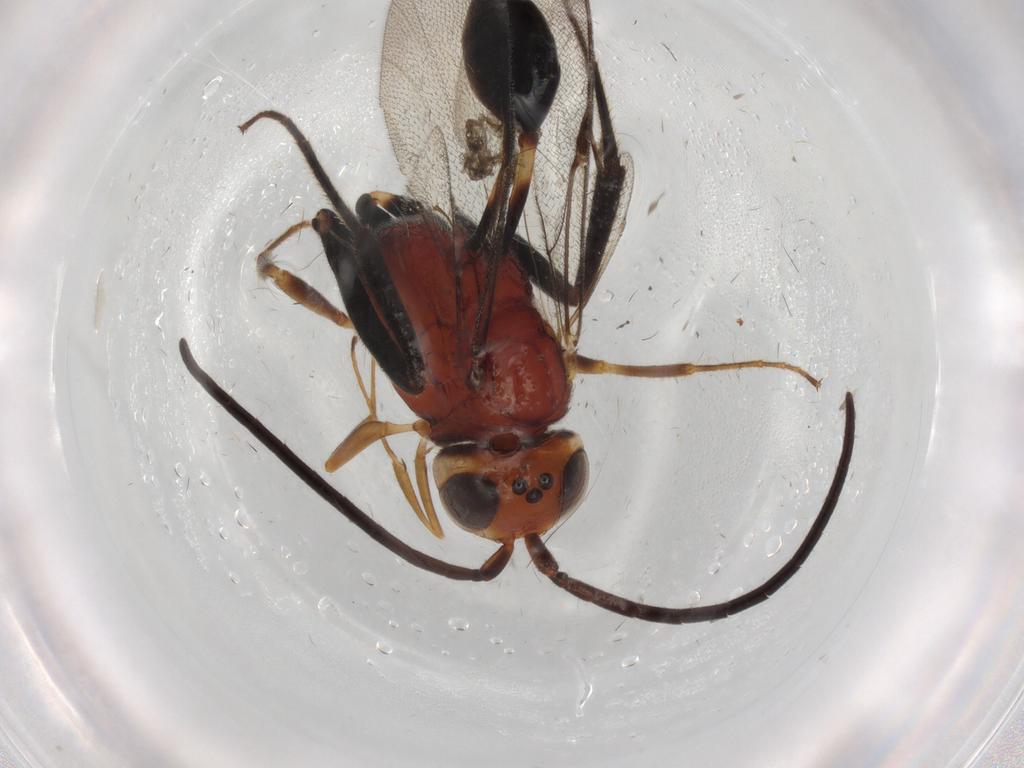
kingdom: Animalia
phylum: Arthropoda
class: Insecta
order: Hymenoptera
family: Evaniidae
